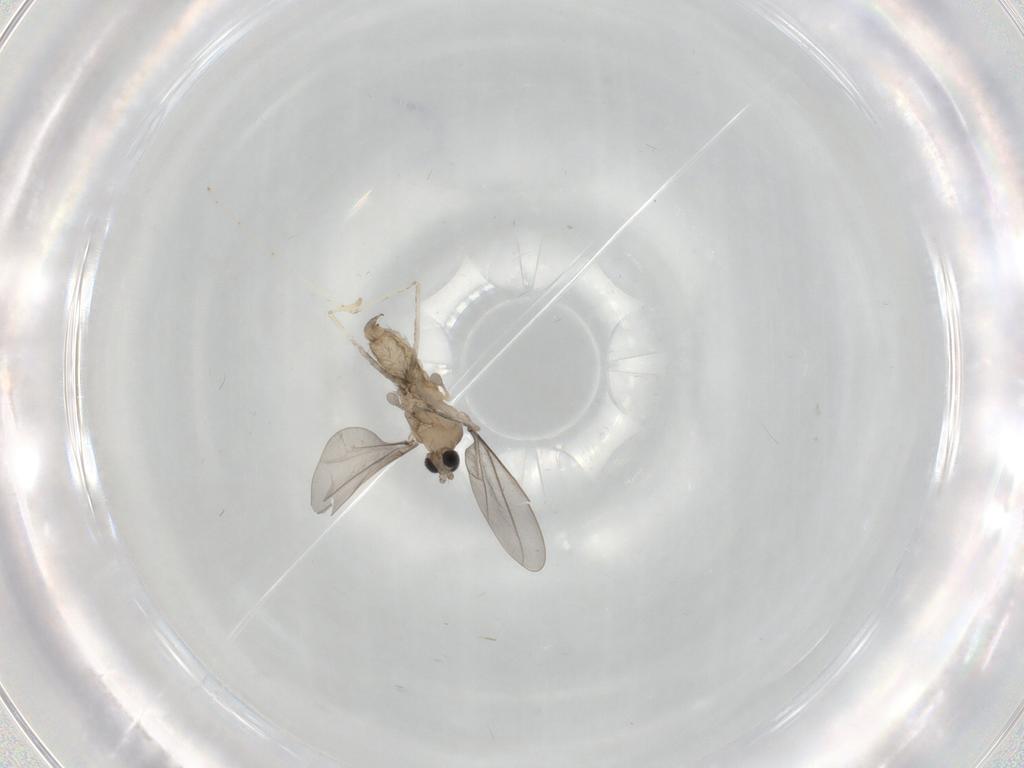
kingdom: Animalia
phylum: Arthropoda
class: Insecta
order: Diptera
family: Cecidomyiidae
